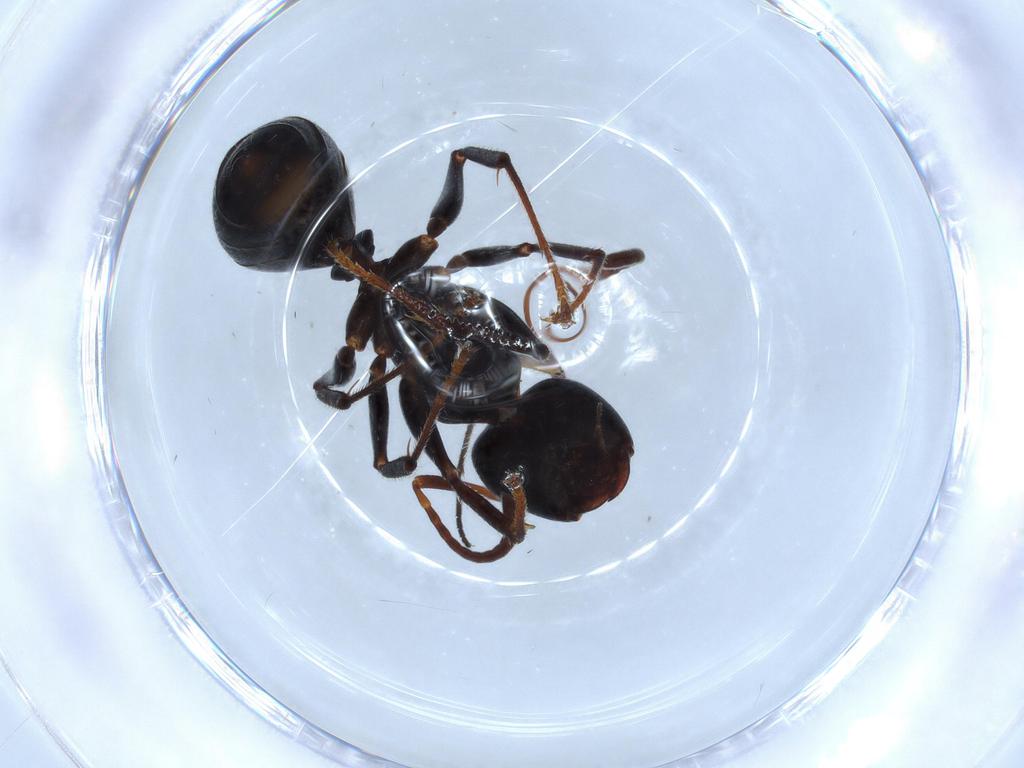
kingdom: Animalia
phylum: Arthropoda
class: Insecta
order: Hymenoptera
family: Formicidae
